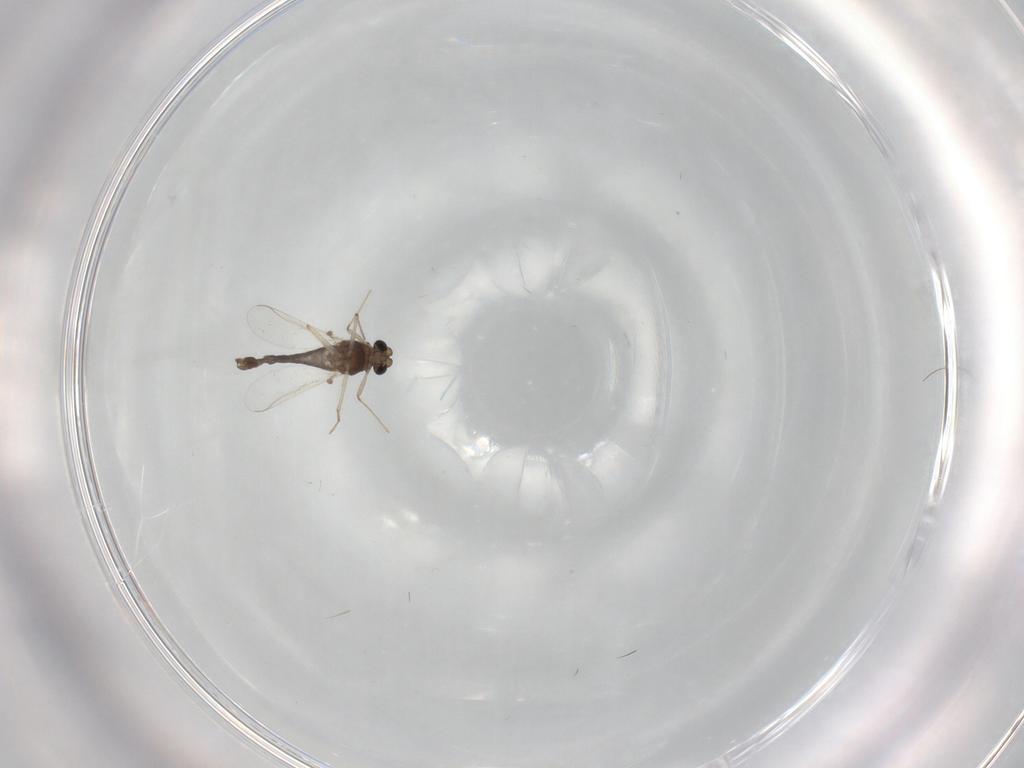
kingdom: Animalia
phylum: Arthropoda
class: Insecta
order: Diptera
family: Chironomidae
